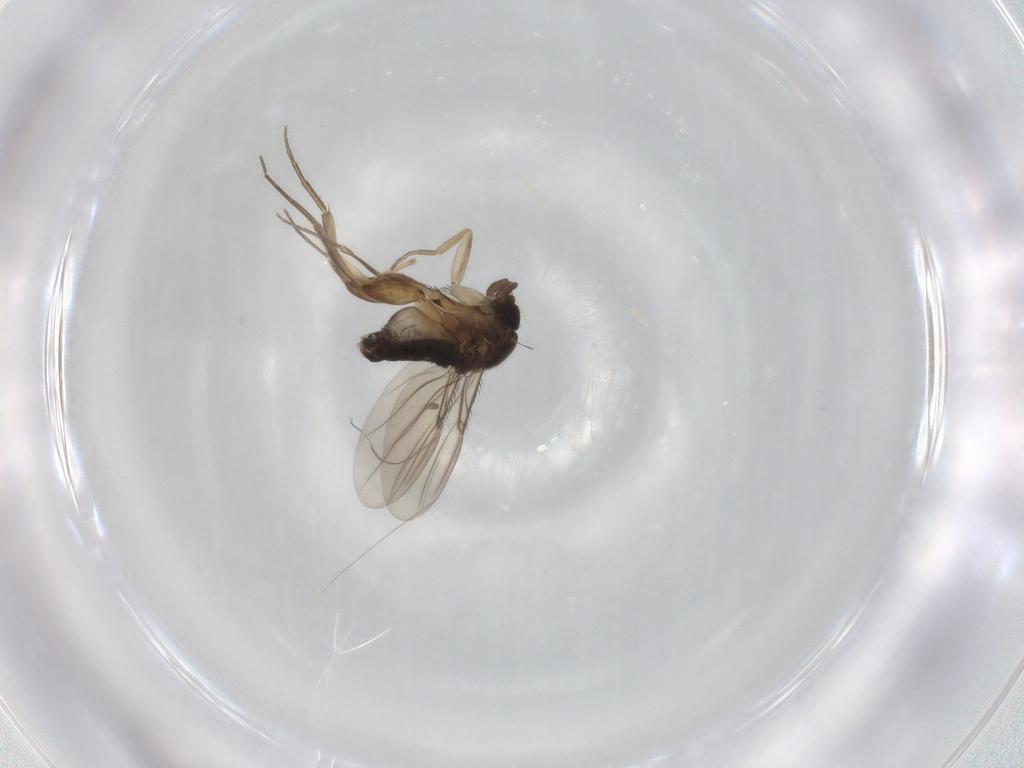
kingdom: Animalia
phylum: Arthropoda
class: Insecta
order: Diptera
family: Phoridae
